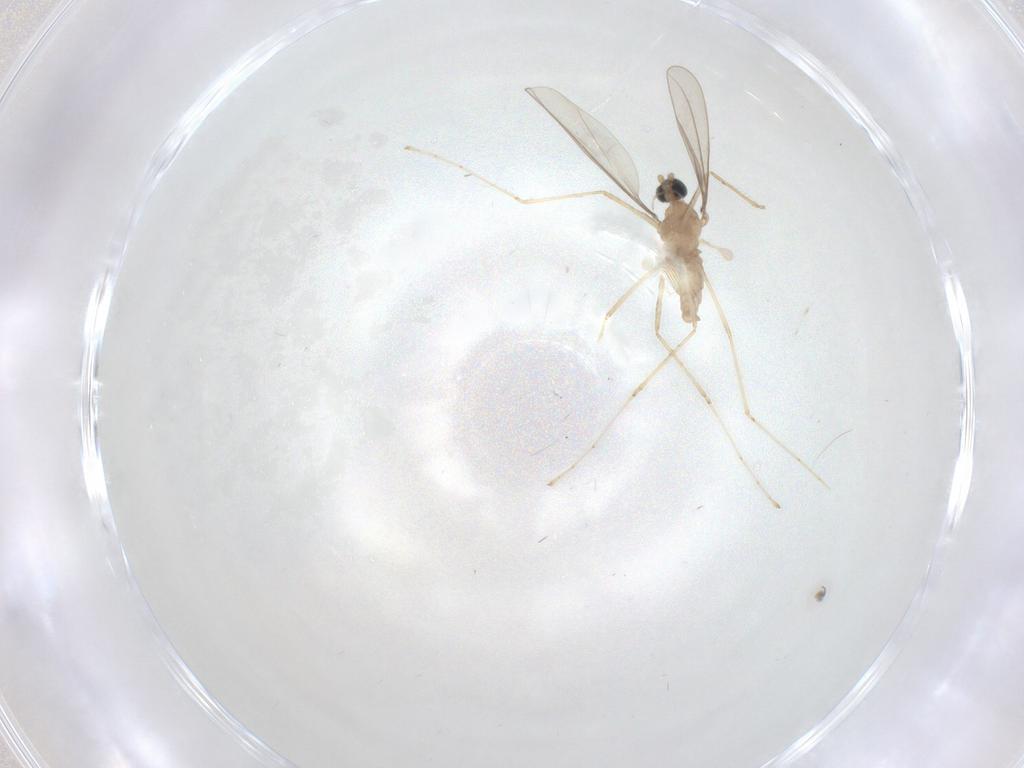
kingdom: Animalia
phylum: Arthropoda
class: Insecta
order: Diptera
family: Cecidomyiidae
